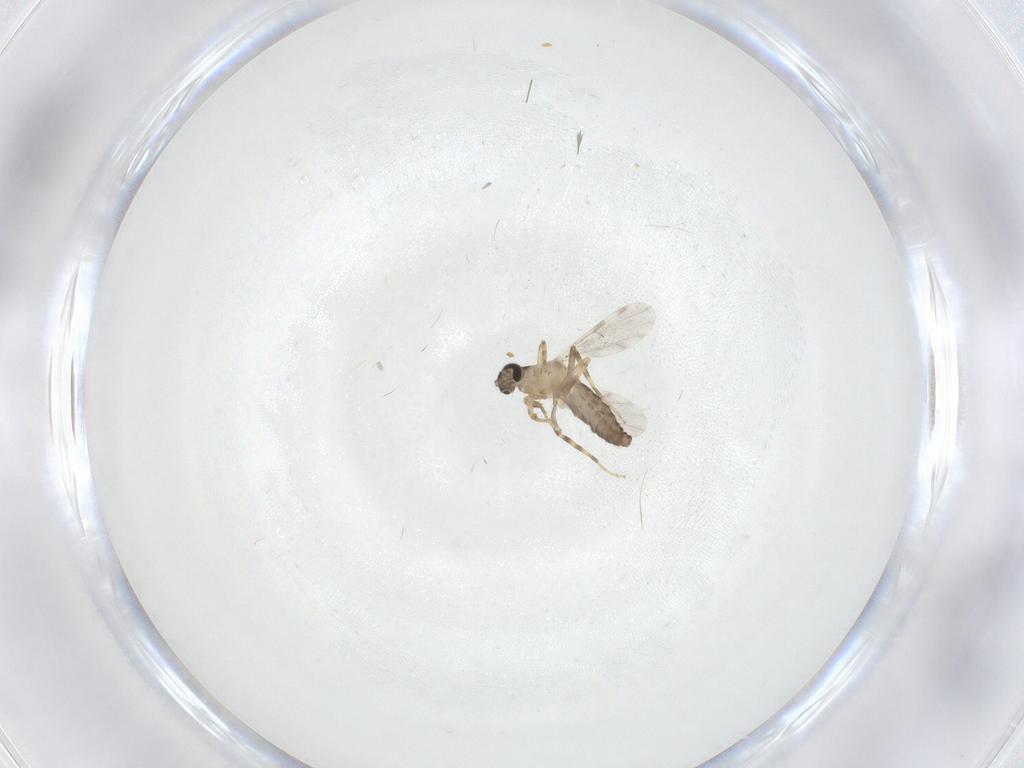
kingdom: Animalia
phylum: Arthropoda
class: Insecta
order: Diptera
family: Ceratopogonidae
